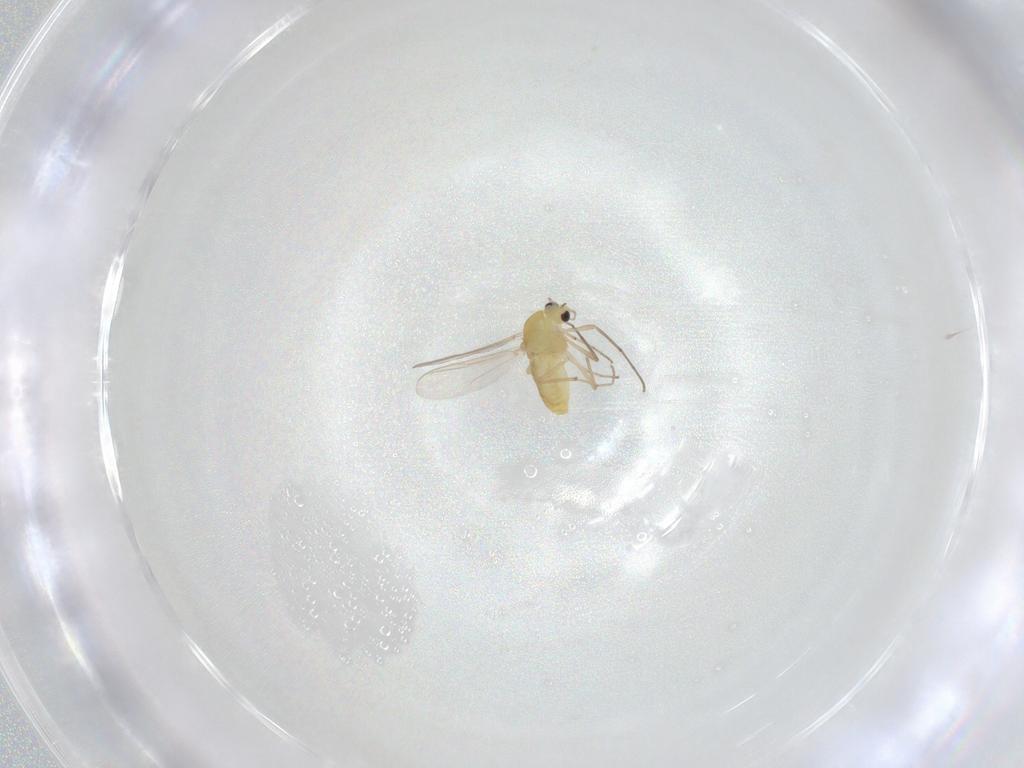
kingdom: Animalia
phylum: Arthropoda
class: Insecta
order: Diptera
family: Chironomidae
